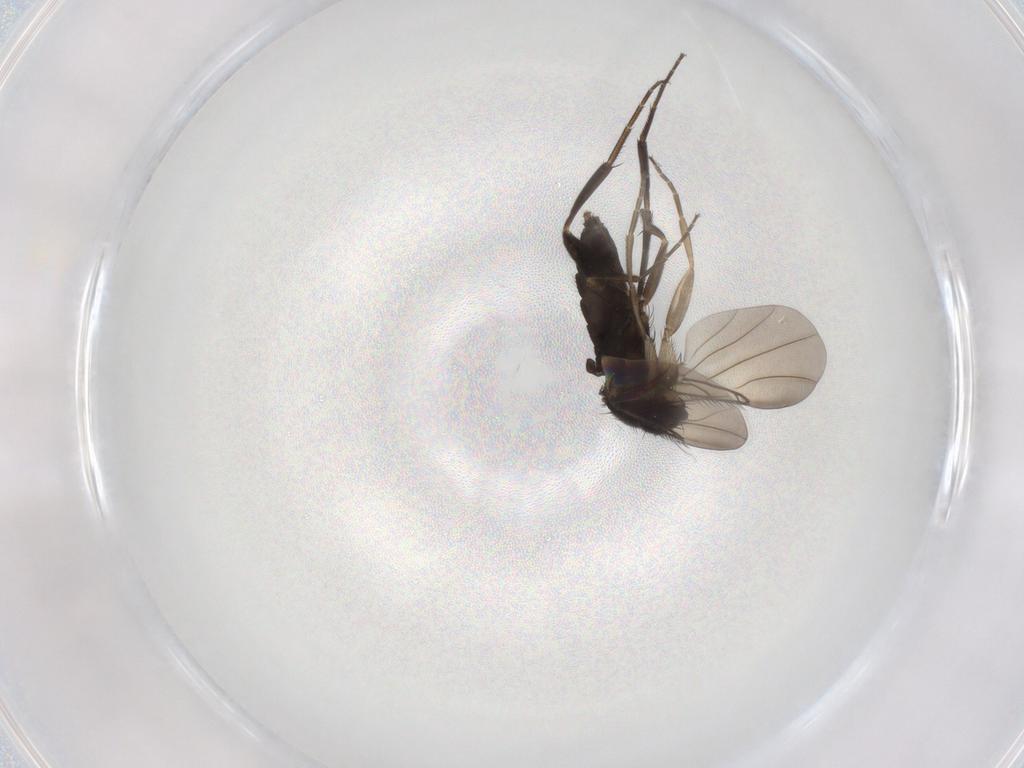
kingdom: Animalia
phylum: Arthropoda
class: Insecta
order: Diptera
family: Phoridae
